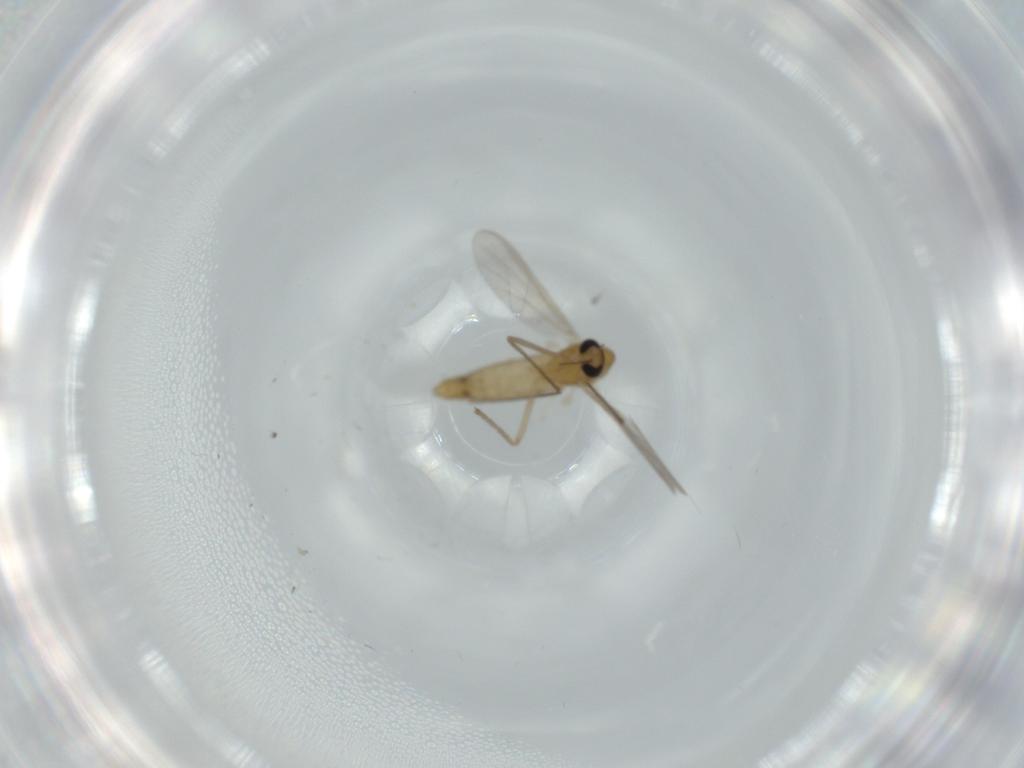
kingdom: Animalia
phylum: Arthropoda
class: Insecta
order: Diptera
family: Chironomidae
